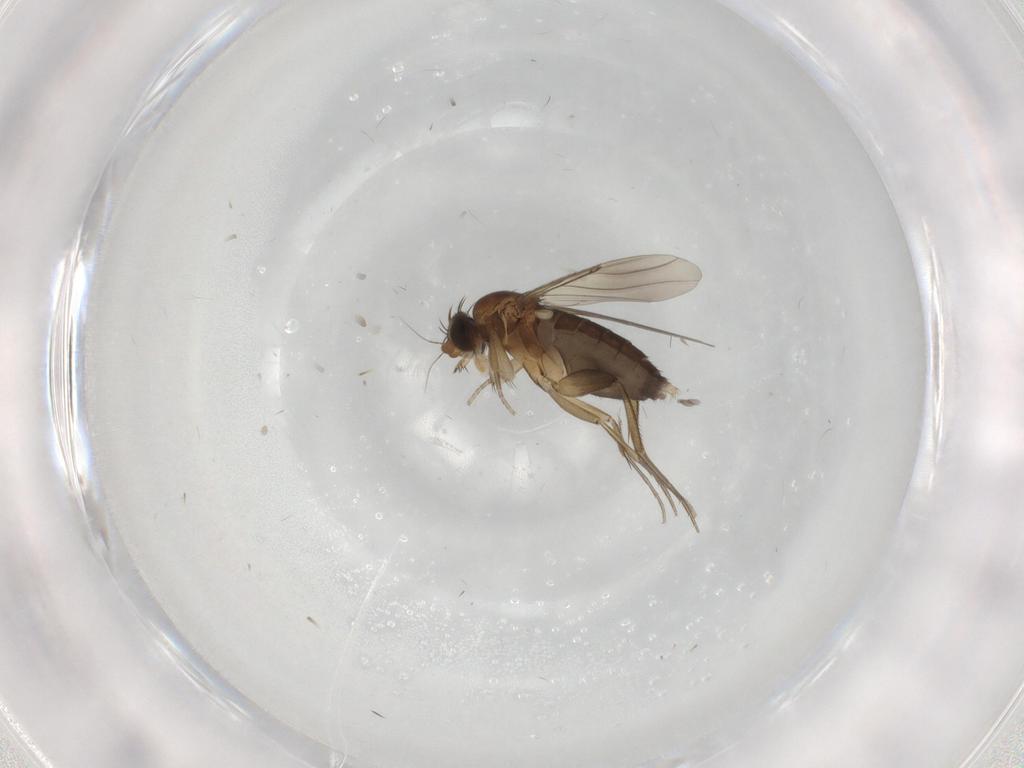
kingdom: Animalia
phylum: Arthropoda
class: Insecta
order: Diptera
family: Phoridae
